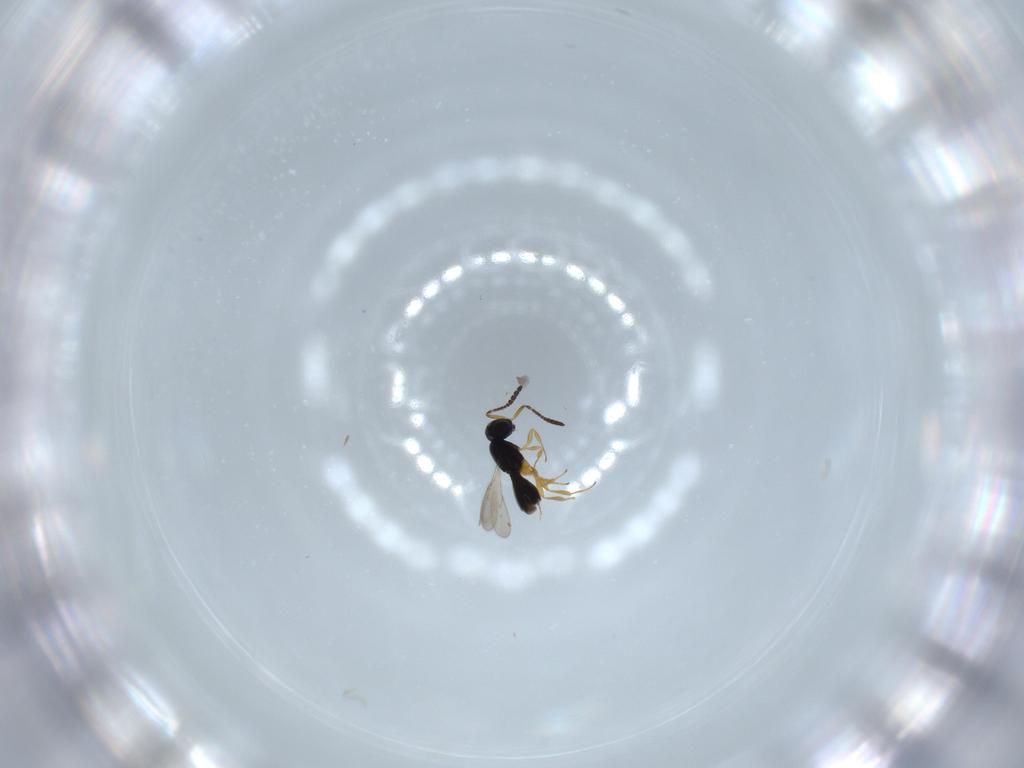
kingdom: Animalia
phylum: Arthropoda
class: Insecta
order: Hymenoptera
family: Scelionidae
